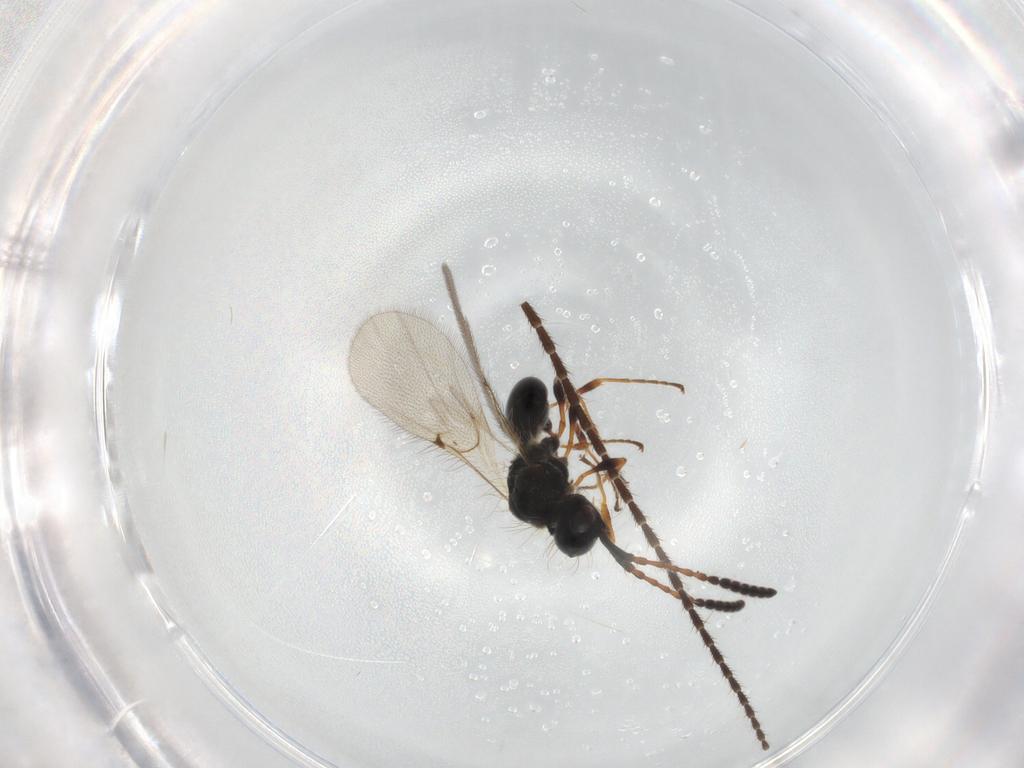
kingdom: Animalia
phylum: Arthropoda
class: Insecta
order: Hymenoptera
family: Diapriidae
